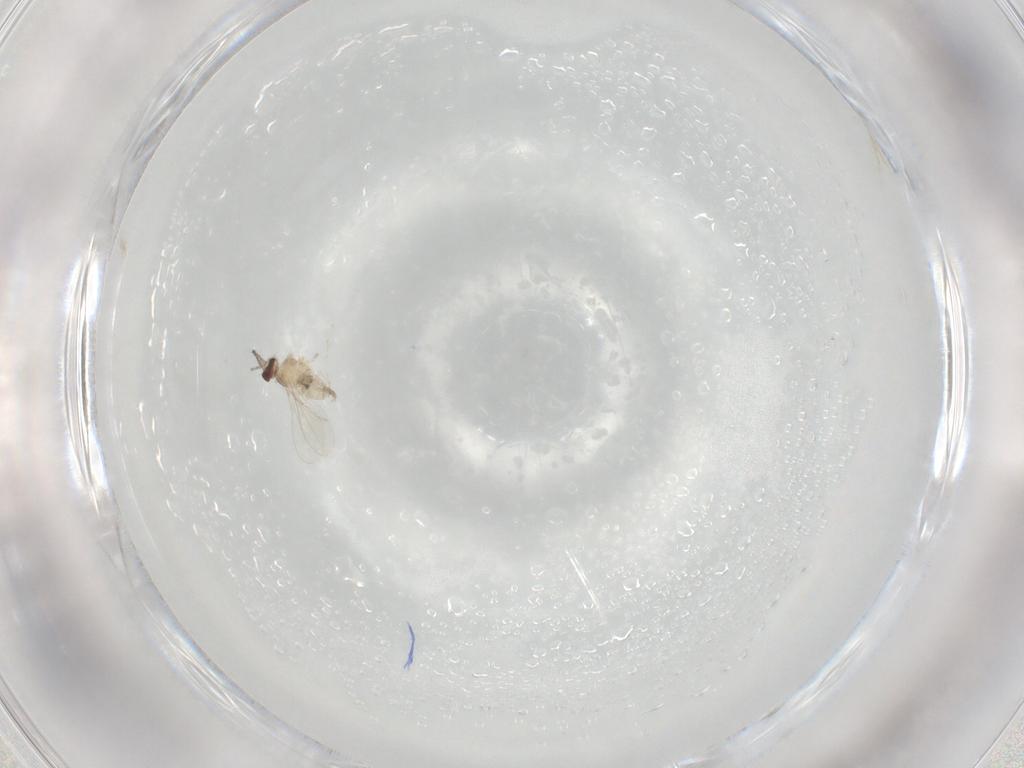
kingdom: Animalia
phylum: Arthropoda
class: Insecta
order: Diptera
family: Cecidomyiidae
